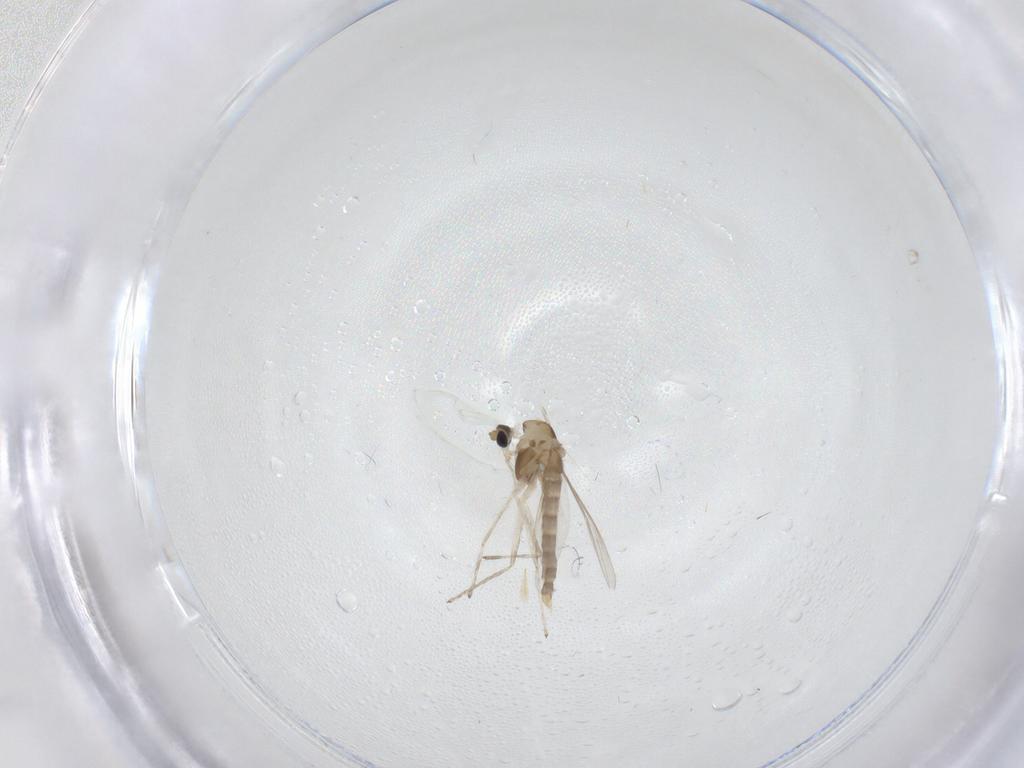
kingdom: Animalia
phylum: Arthropoda
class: Insecta
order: Diptera
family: Chironomidae
